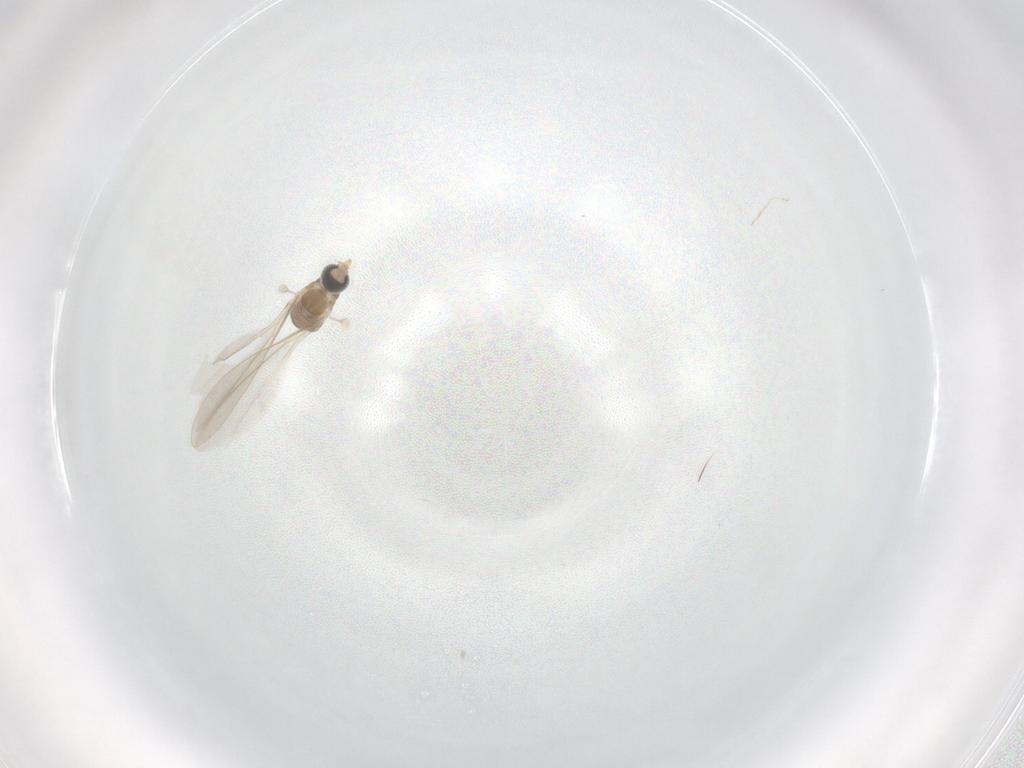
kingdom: Animalia
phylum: Arthropoda
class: Insecta
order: Diptera
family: Cecidomyiidae
